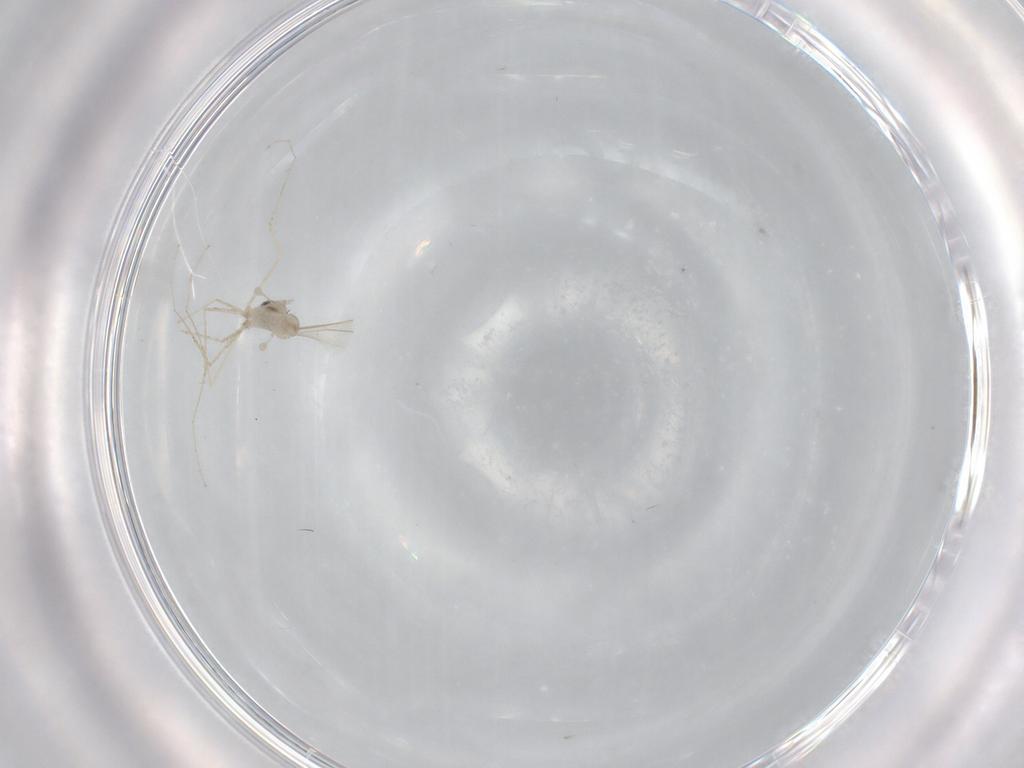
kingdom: Animalia
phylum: Arthropoda
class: Insecta
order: Diptera
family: Cecidomyiidae
